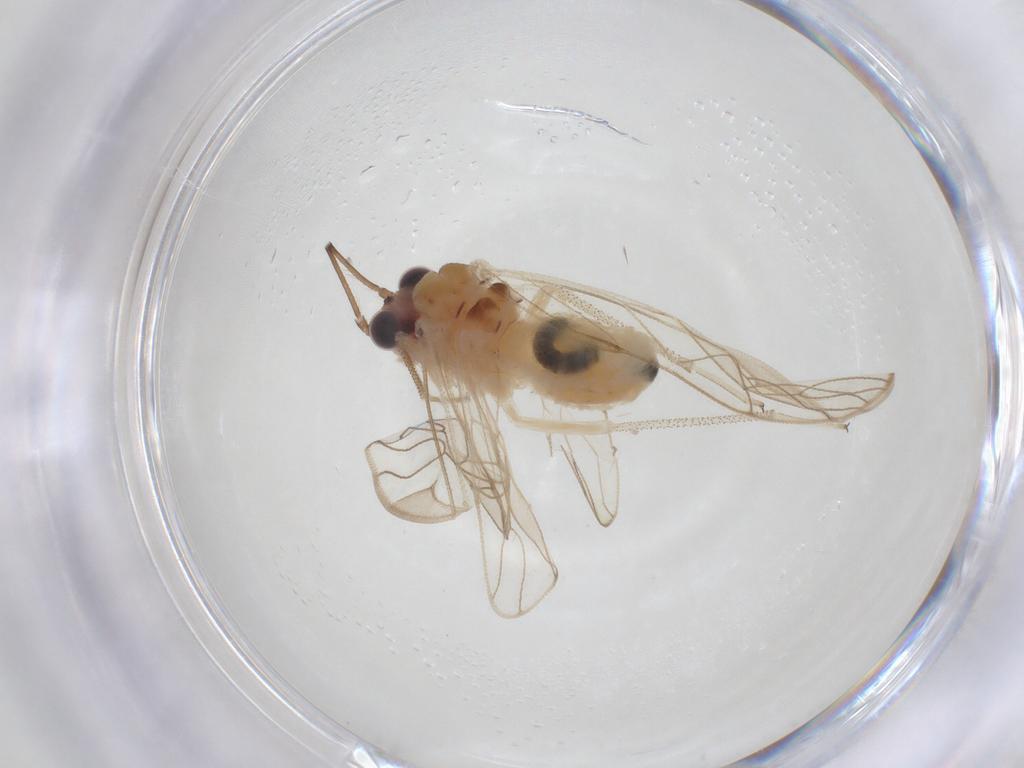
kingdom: Animalia
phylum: Arthropoda
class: Insecta
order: Psocodea
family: Amphipsocidae
